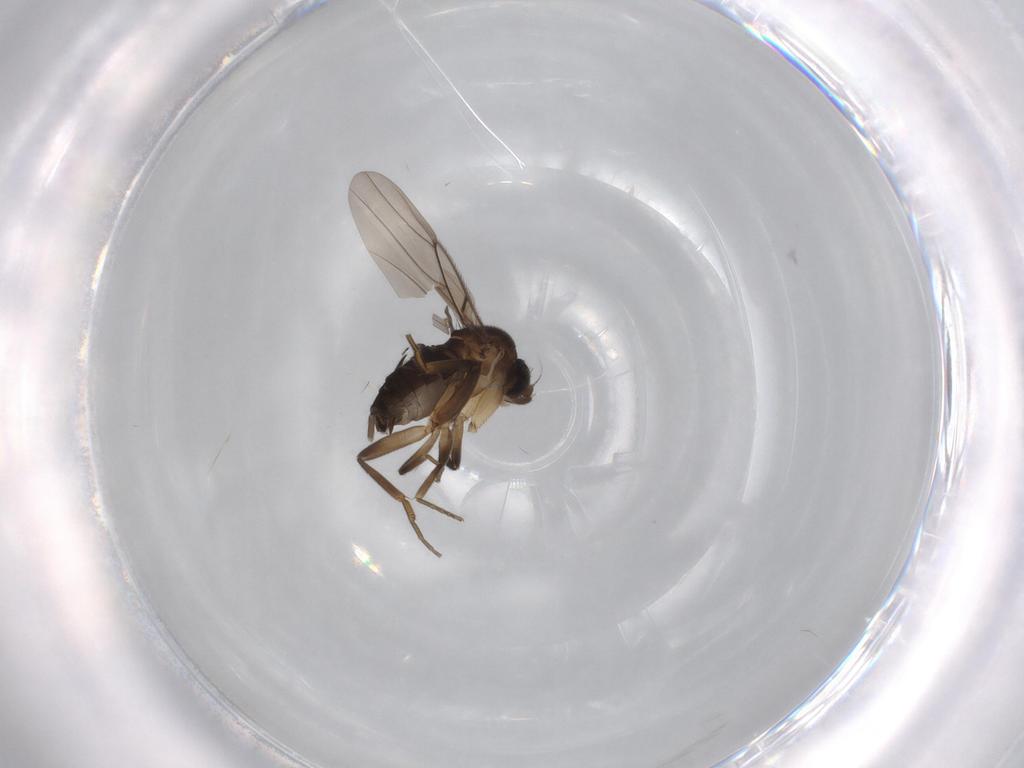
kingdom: Animalia
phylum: Arthropoda
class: Insecta
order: Diptera
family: Phoridae
